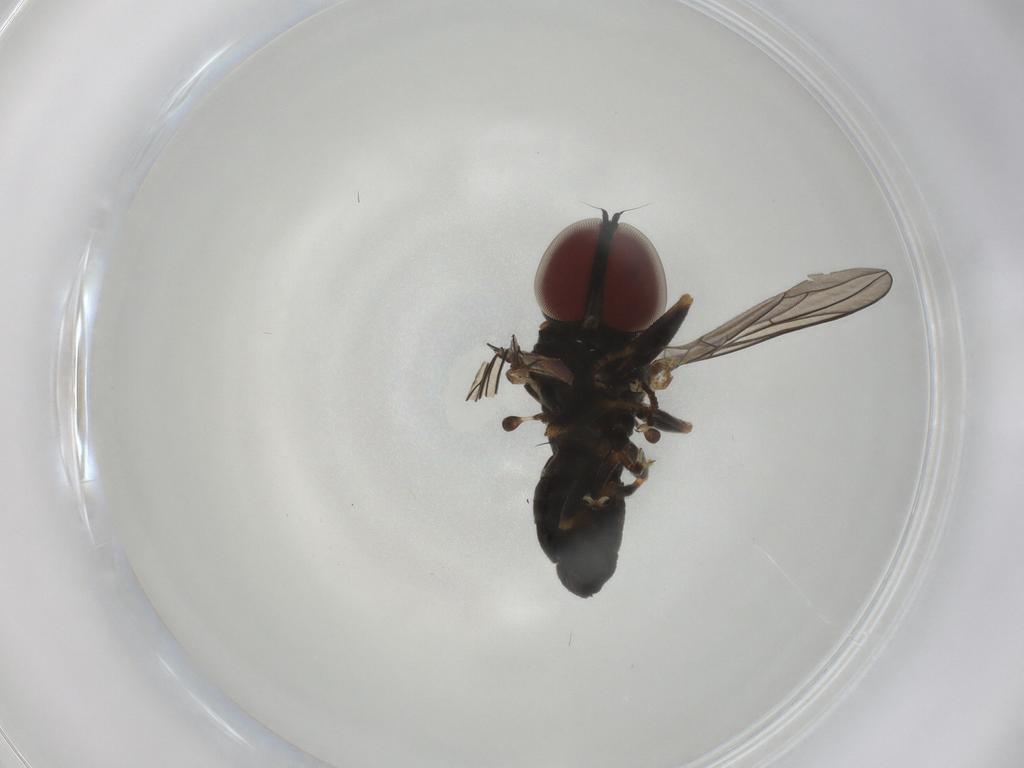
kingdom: Animalia
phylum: Arthropoda
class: Insecta
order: Diptera
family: Pipunculidae
